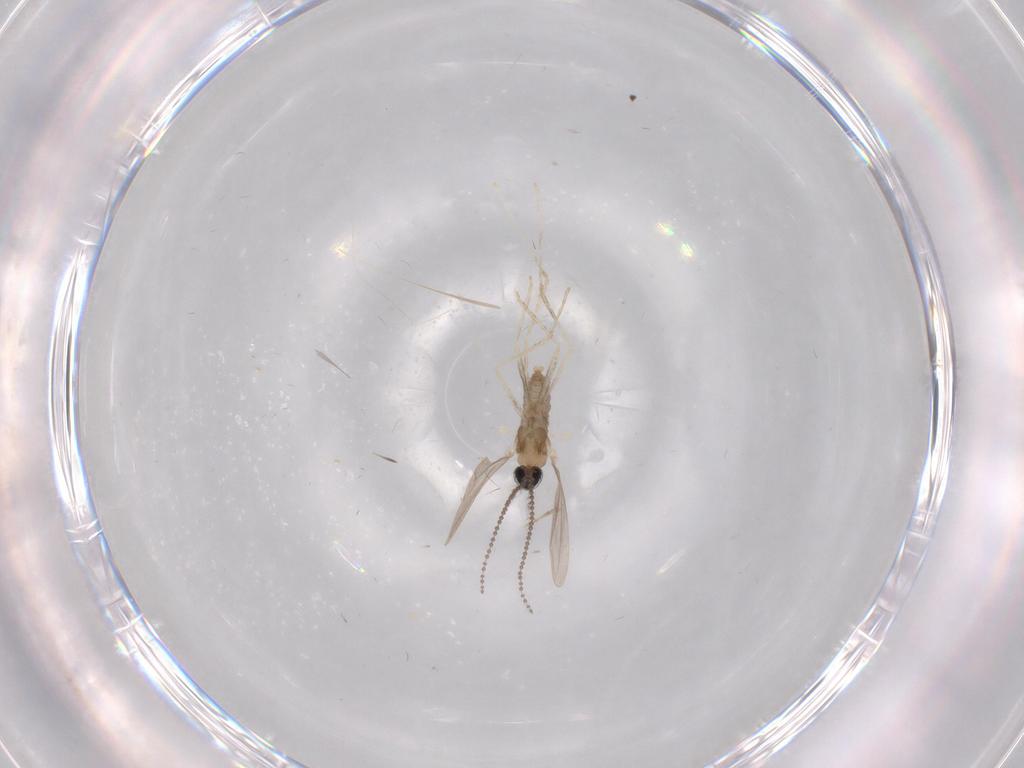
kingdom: Animalia
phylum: Arthropoda
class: Insecta
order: Diptera
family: Cecidomyiidae
